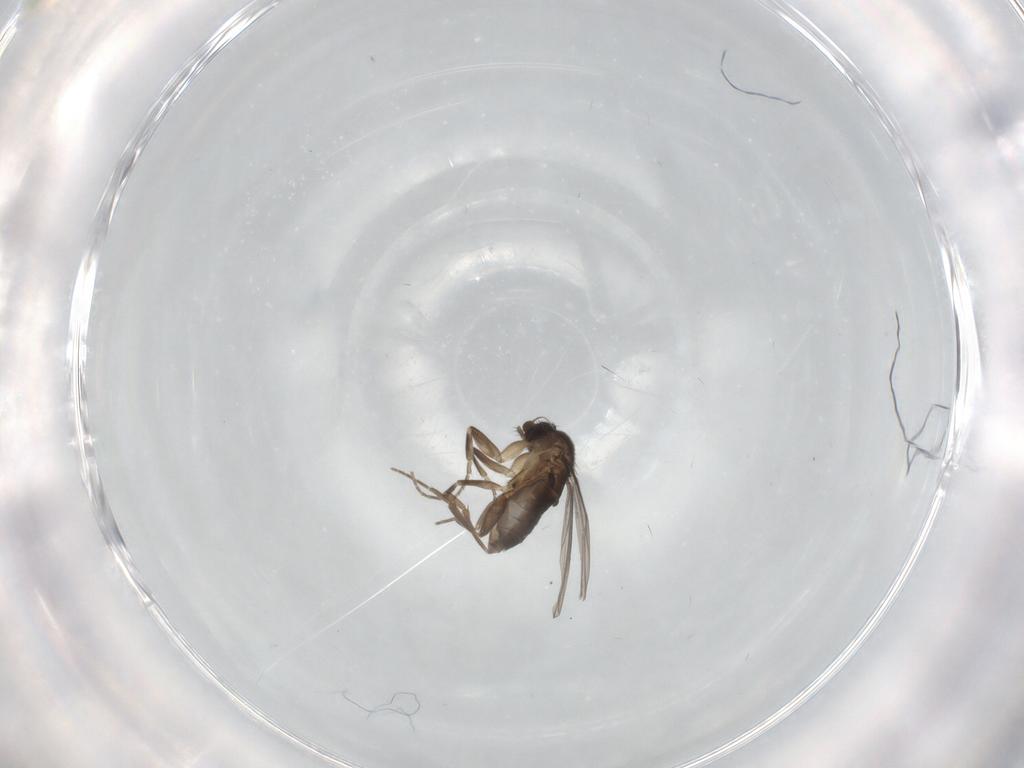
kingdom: Animalia
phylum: Arthropoda
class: Insecta
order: Diptera
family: Phoridae
